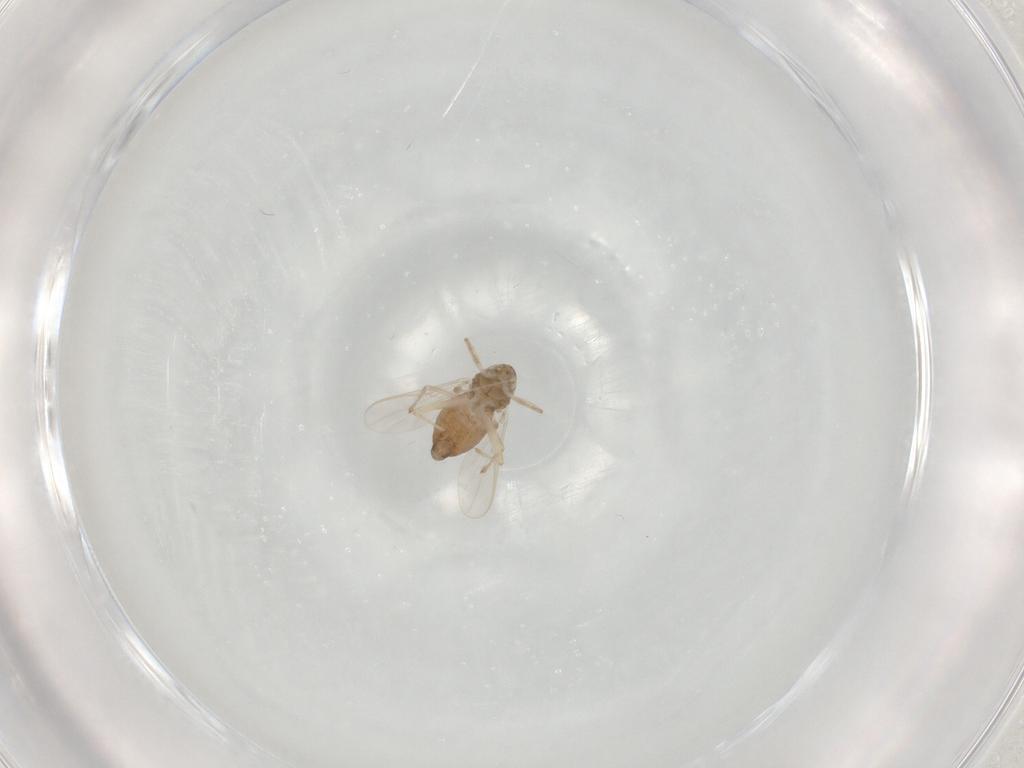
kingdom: Animalia
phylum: Arthropoda
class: Insecta
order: Diptera
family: Chironomidae
